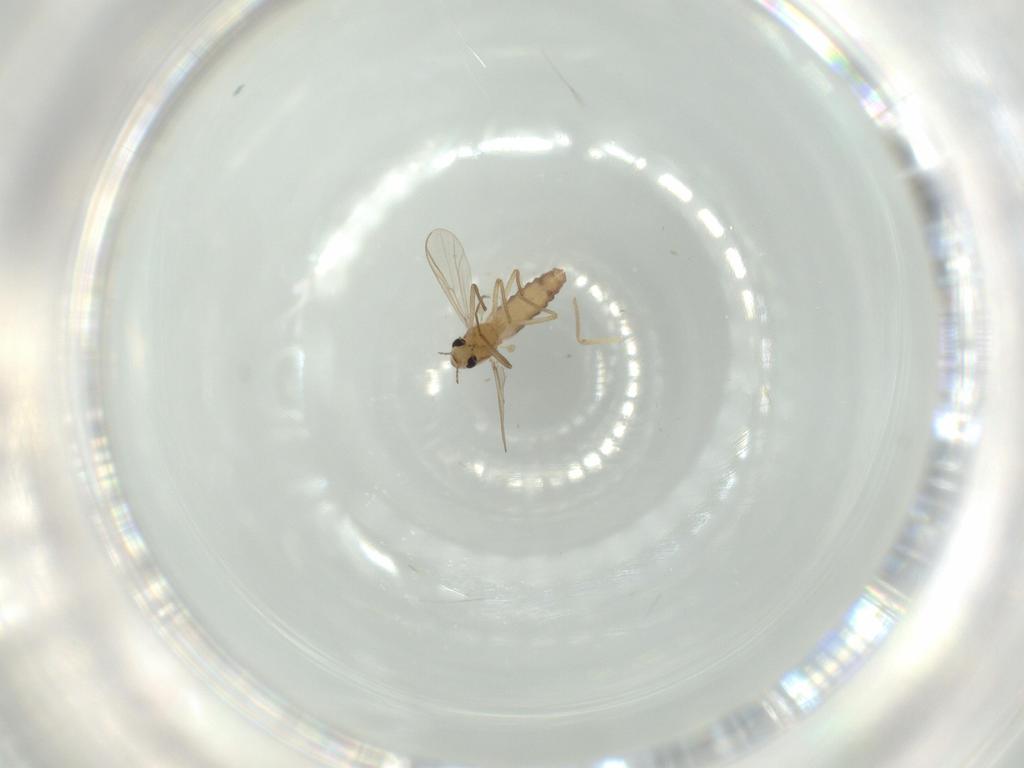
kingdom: Animalia
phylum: Arthropoda
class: Insecta
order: Diptera
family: Chironomidae
